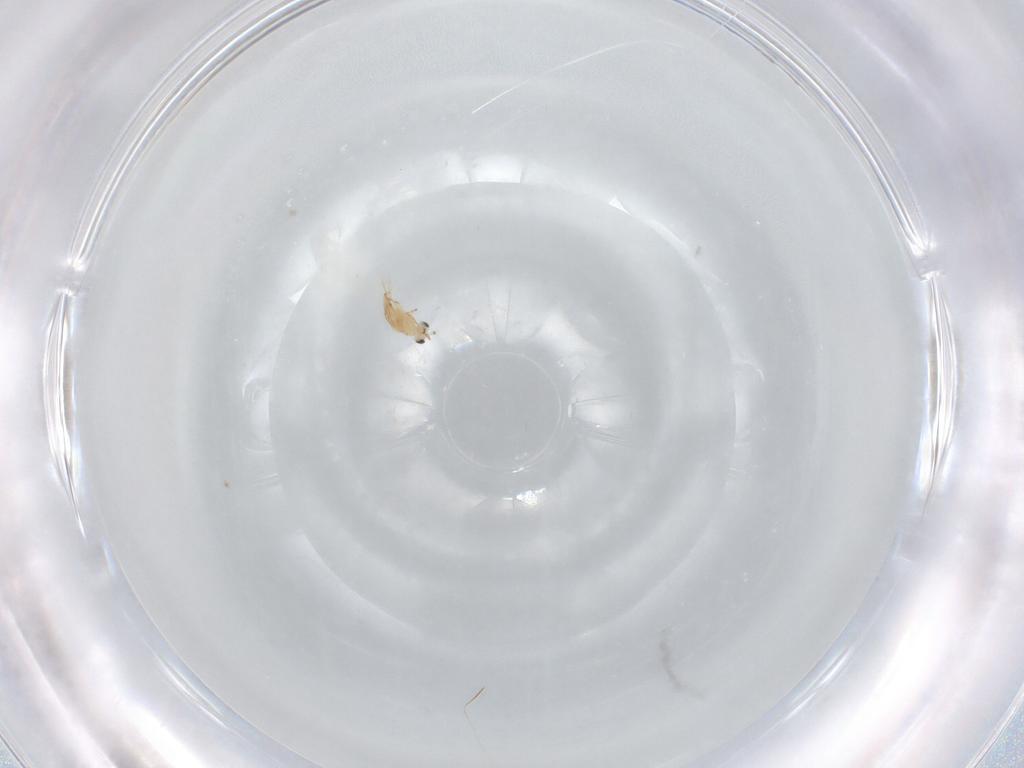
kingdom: Animalia
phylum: Arthropoda
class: Insecta
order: Hymenoptera
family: Trichogrammatidae
